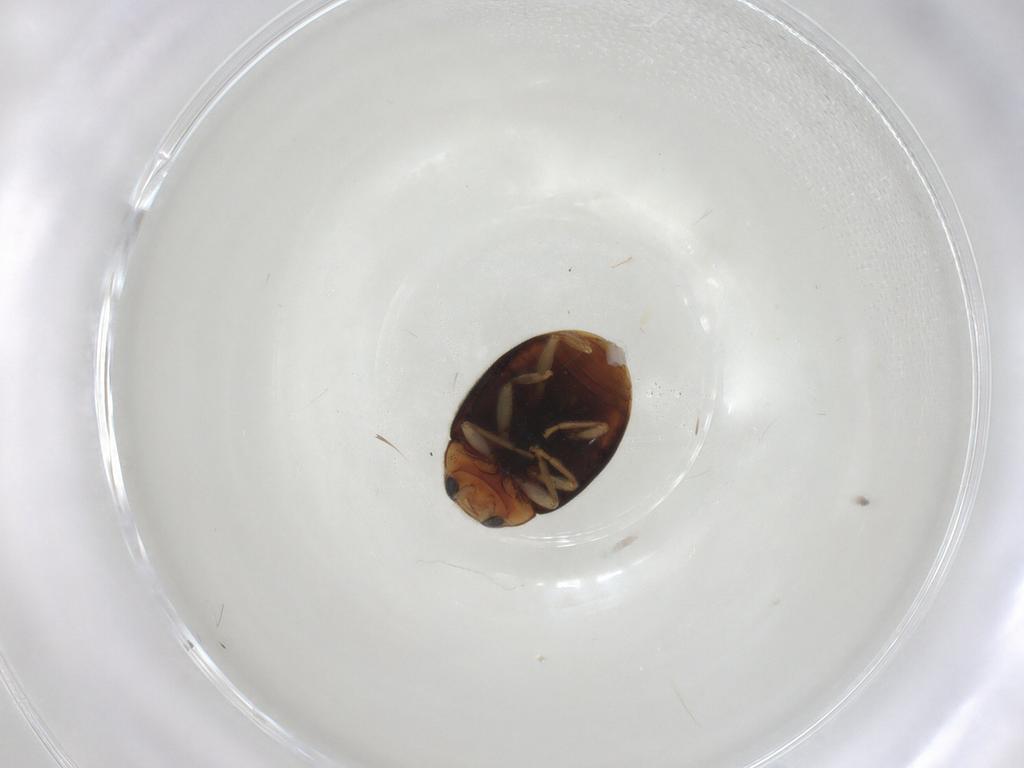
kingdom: Animalia
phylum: Arthropoda
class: Insecta
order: Coleoptera
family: Coccinellidae
